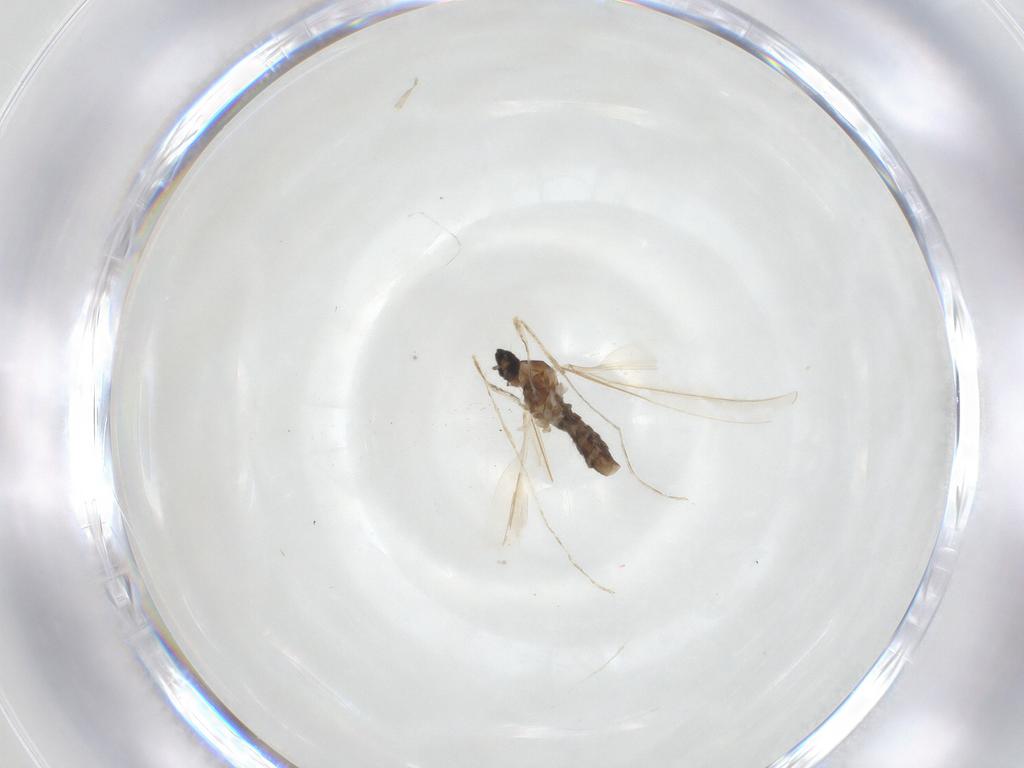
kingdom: Animalia
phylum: Arthropoda
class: Insecta
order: Diptera
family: Cecidomyiidae
